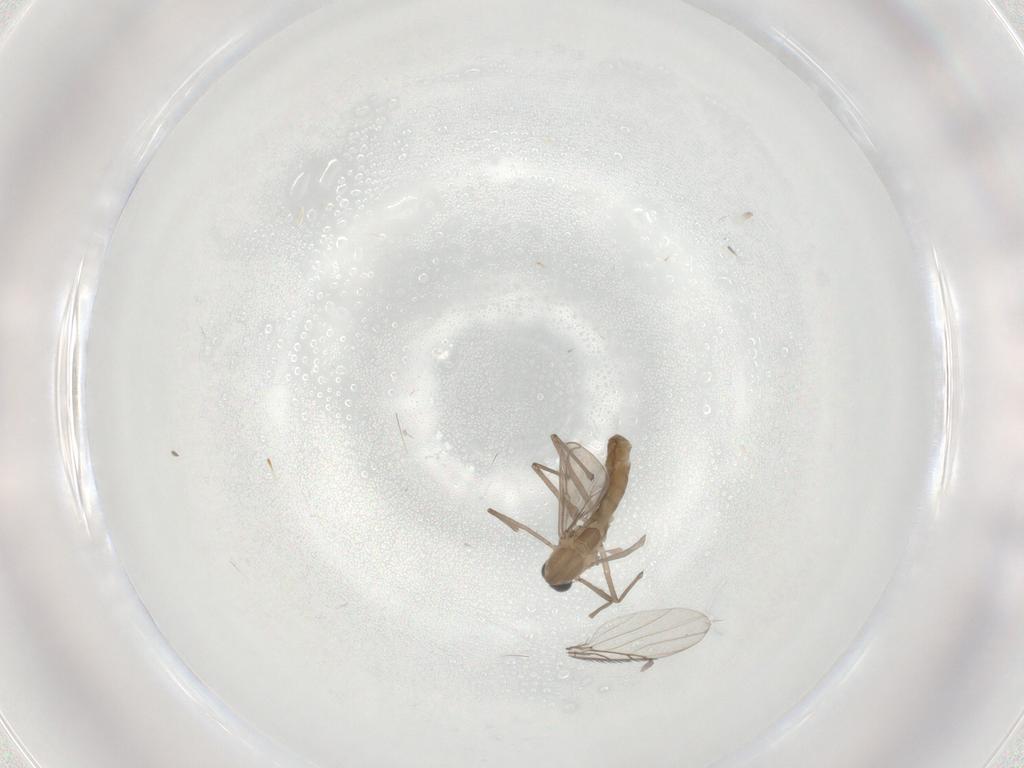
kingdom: Animalia
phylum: Arthropoda
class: Insecta
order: Diptera
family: Chironomidae
